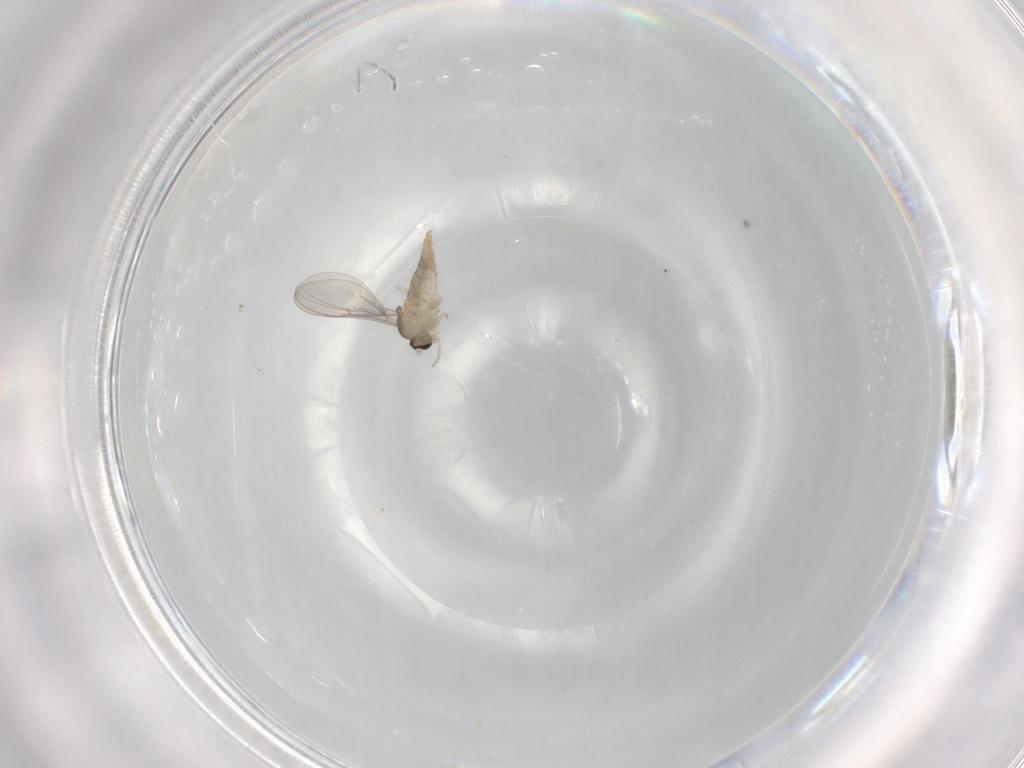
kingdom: Animalia
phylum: Arthropoda
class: Insecta
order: Diptera
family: Cecidomyiidae
